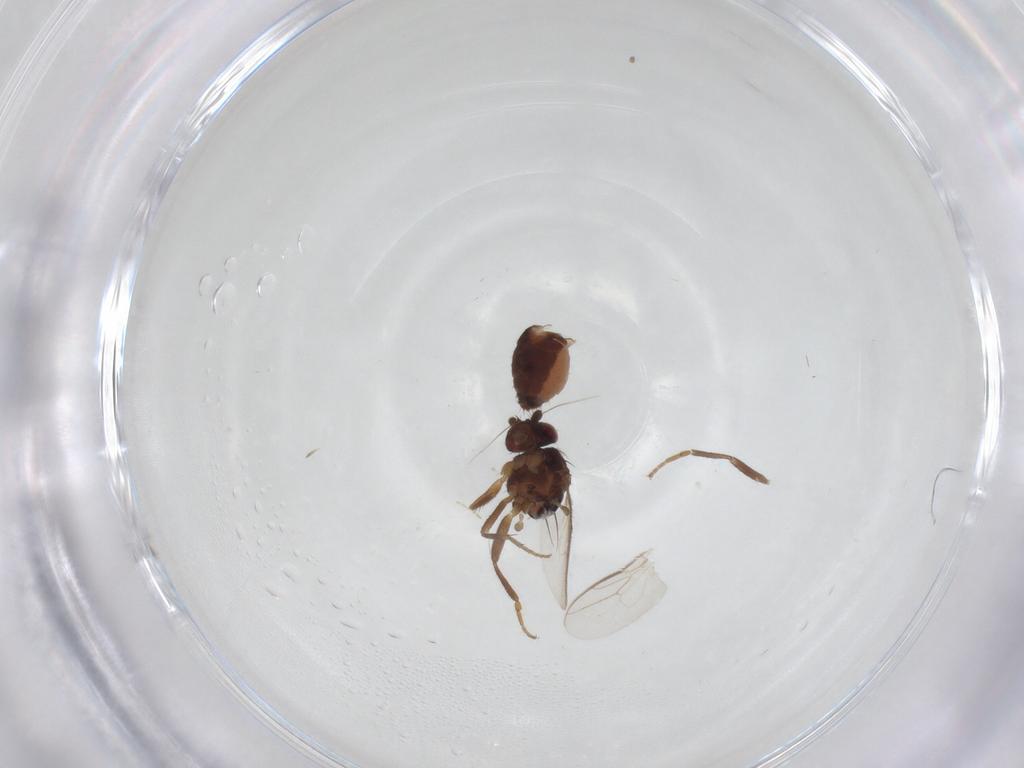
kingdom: Animalia
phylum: Arthropoda
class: Insecta
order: Diptera
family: Sphaeroceridae
